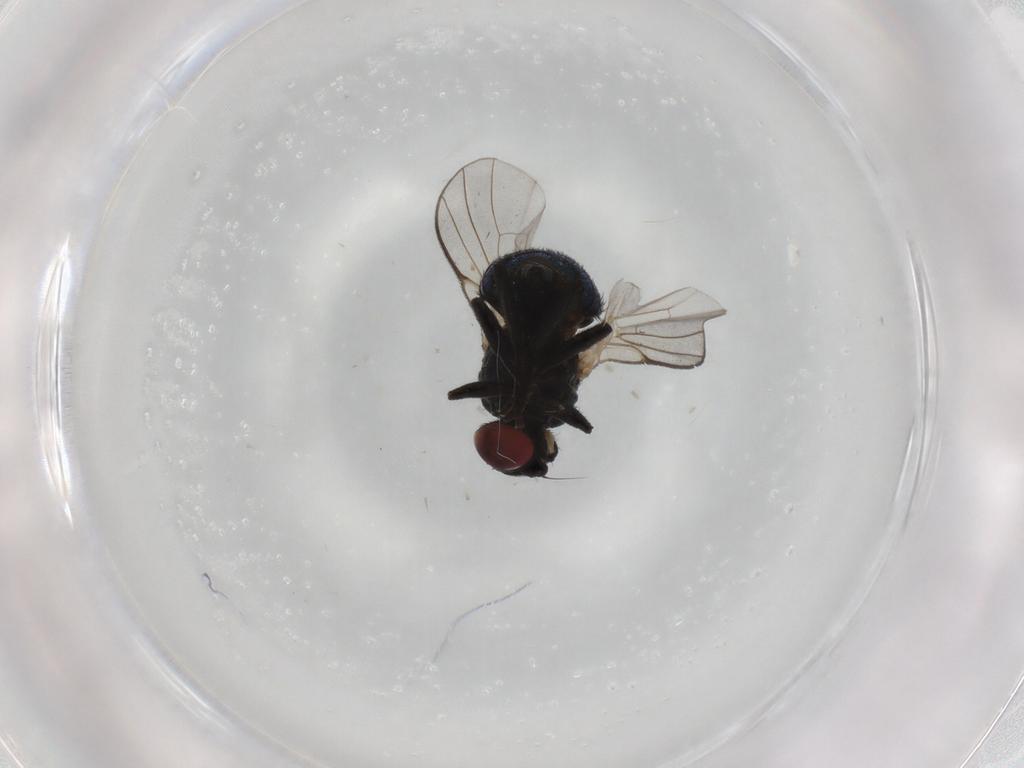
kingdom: Animalia
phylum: Arthropoda
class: Insecta
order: Diptera
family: Agromyzidae
